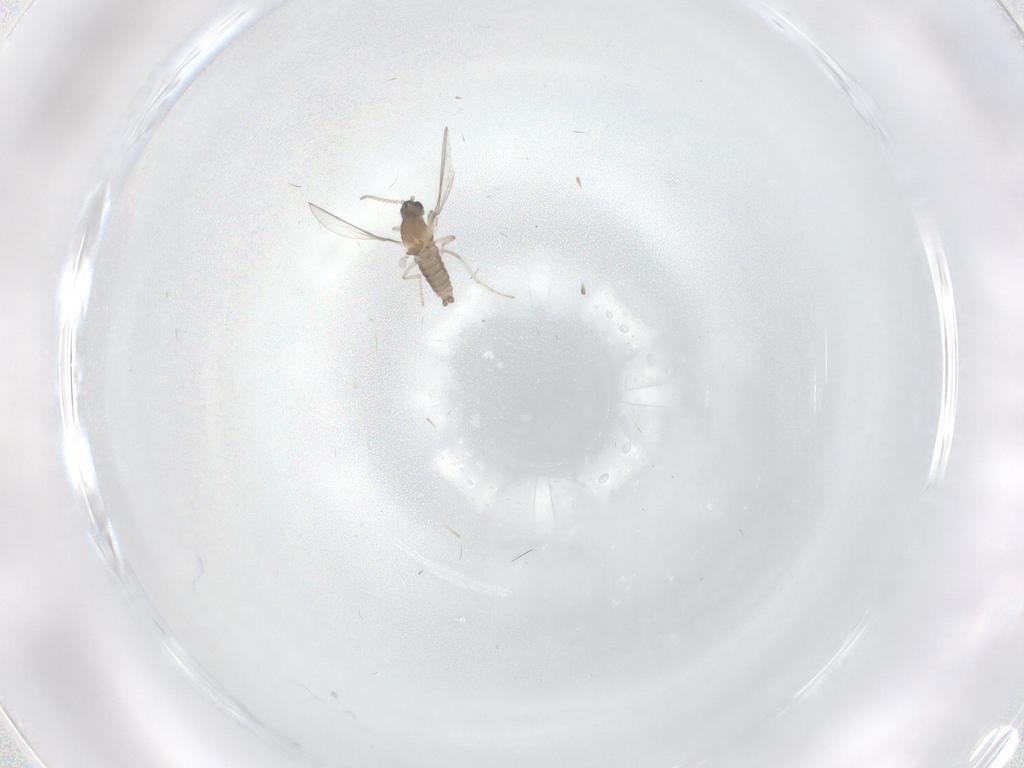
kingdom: Animalia
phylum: Arthropoda
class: Insecta
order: Diptera
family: Cecidomyiidae
